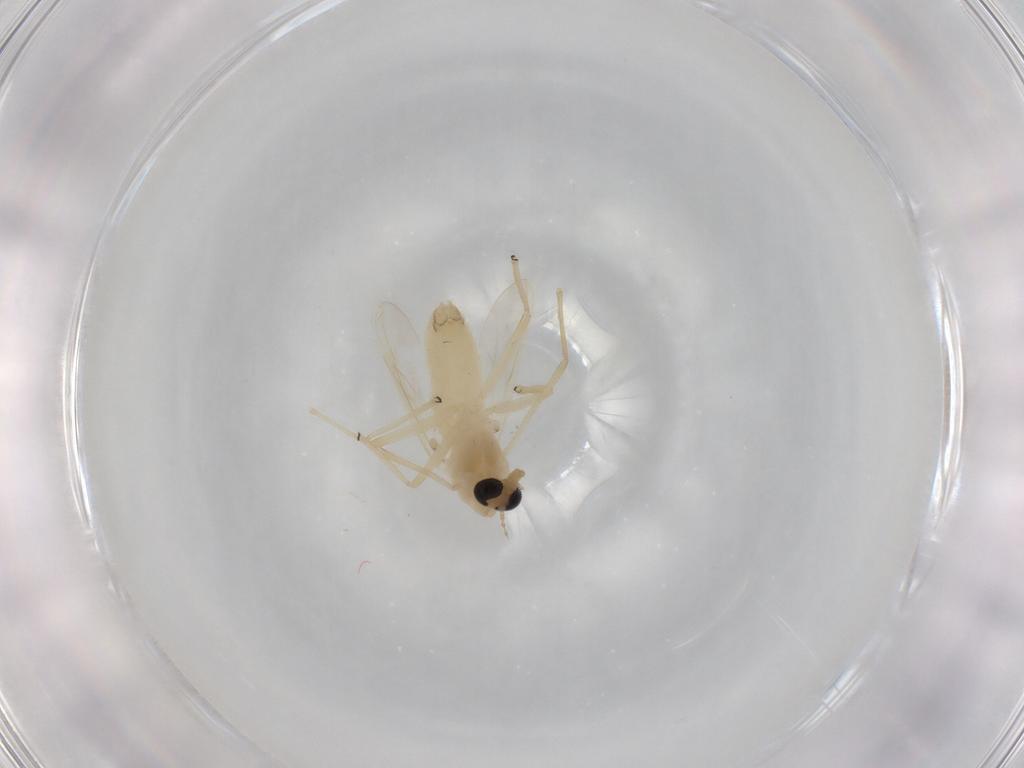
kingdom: Animalia
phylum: Arthropoda
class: Insecta
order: Diptera
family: Chironomidae
